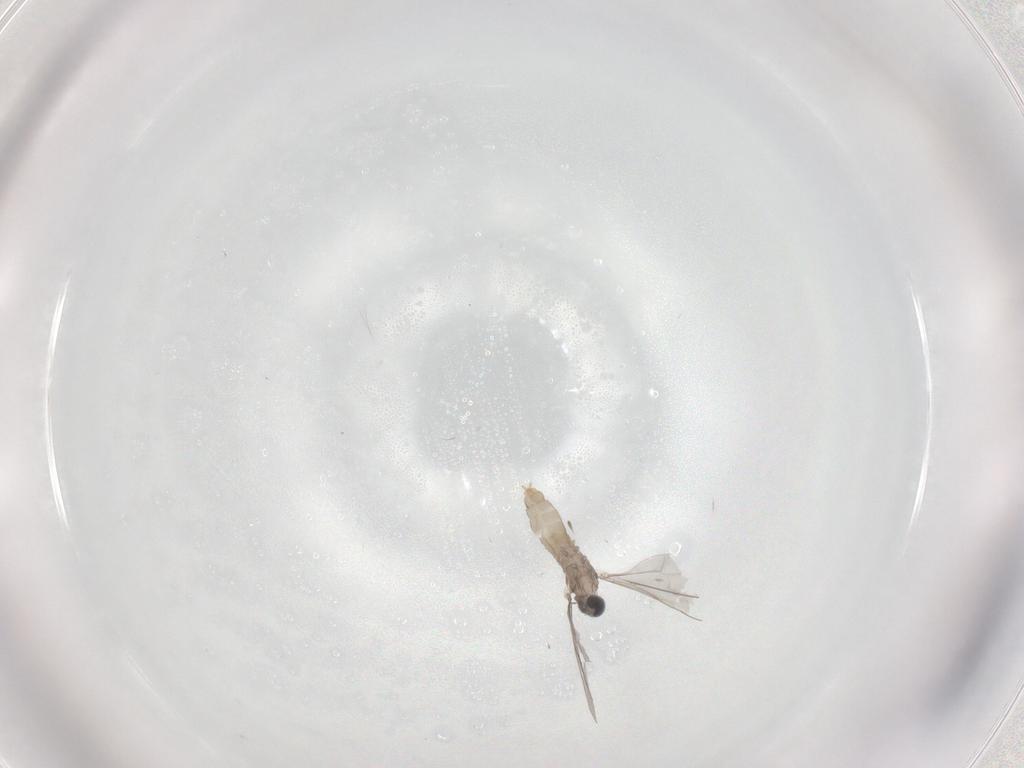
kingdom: Animalia
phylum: Arthropoda
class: Insecta
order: Diptera
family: Cecidomyiidae
